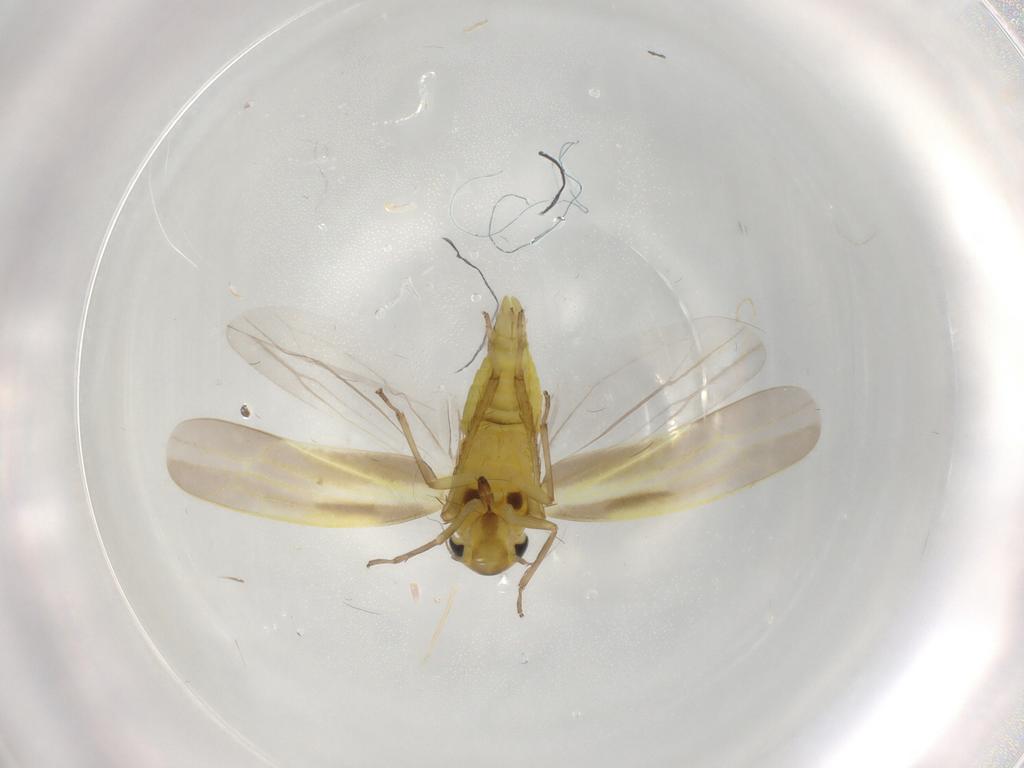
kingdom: Animalia
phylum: Arthropoda
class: Insecta
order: Hemiptera
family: Cicadellidae
